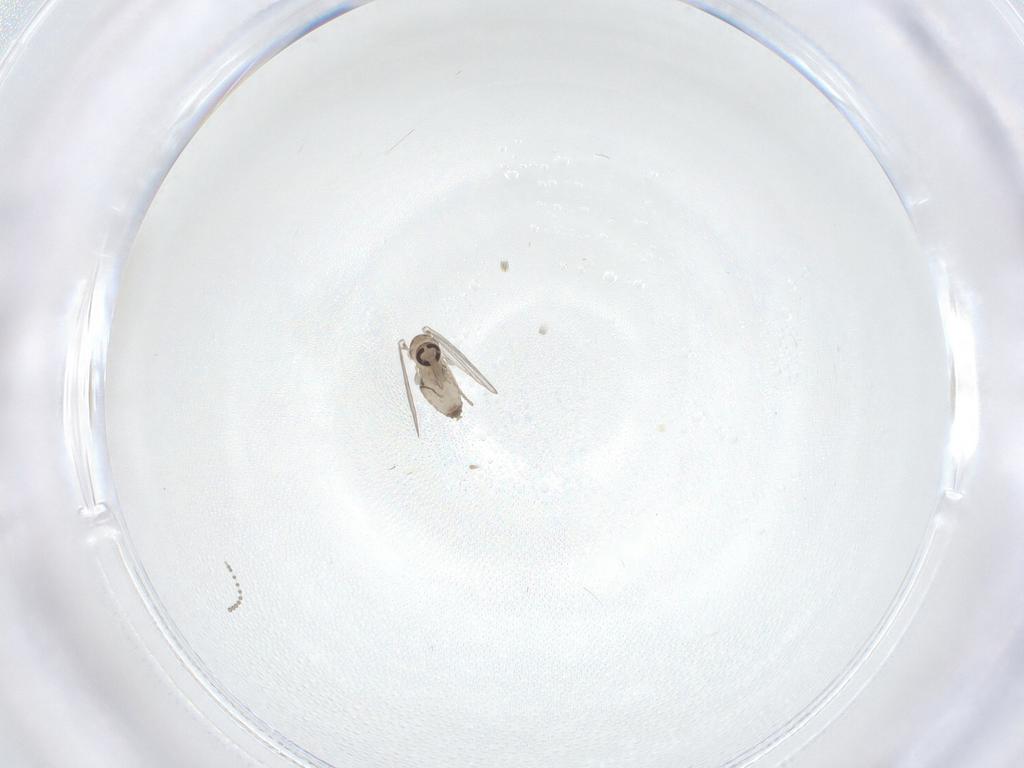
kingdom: Animalia
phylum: Arthropoda
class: Insecta
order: Diptera
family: Psychodidae
